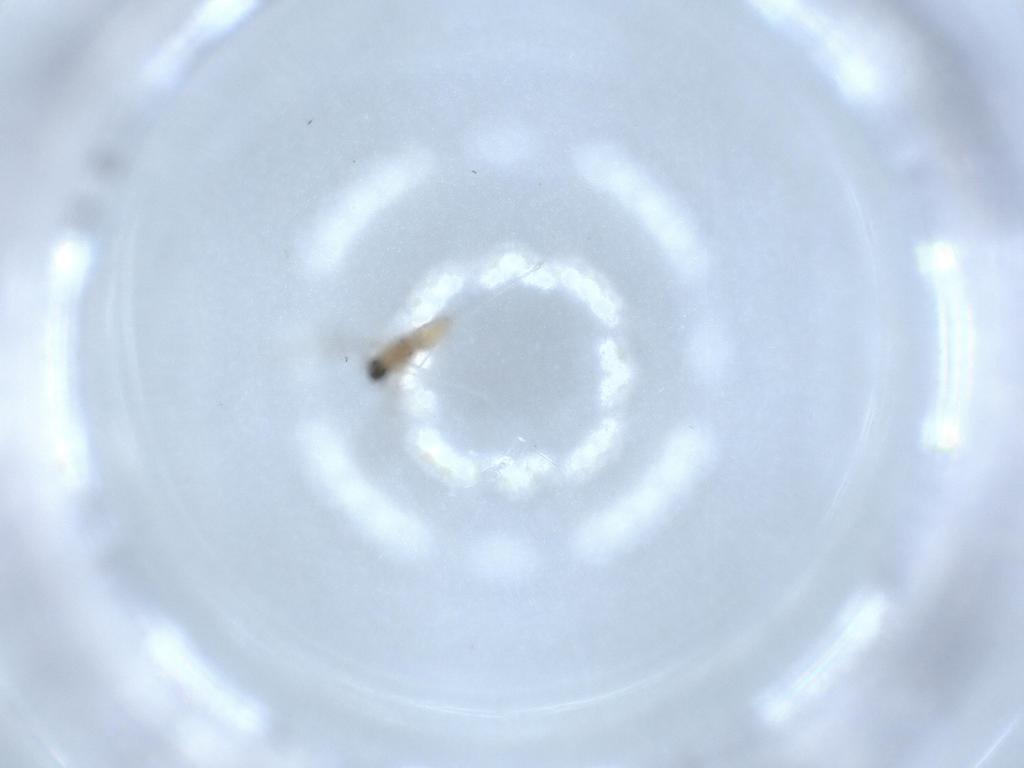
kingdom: Animalia
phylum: Arthropoda
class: Insecta
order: Diptera
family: Cecidomyiidae
